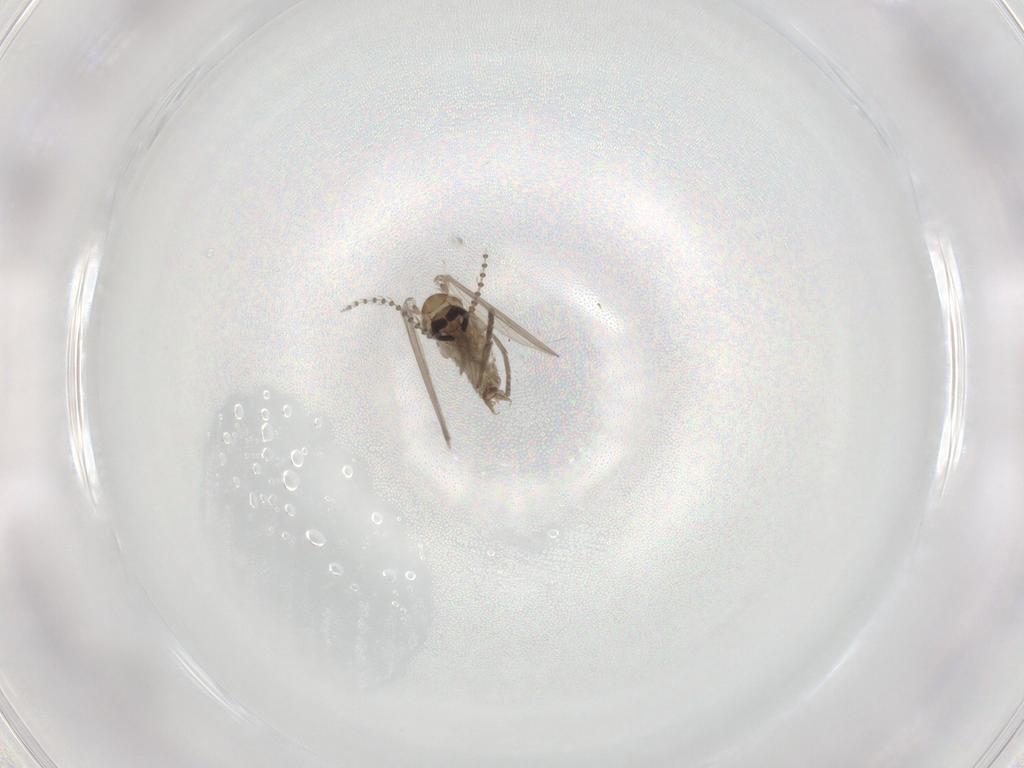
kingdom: Animalia
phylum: Arthropoda
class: Insecta
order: Diptera
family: Psychodidae
